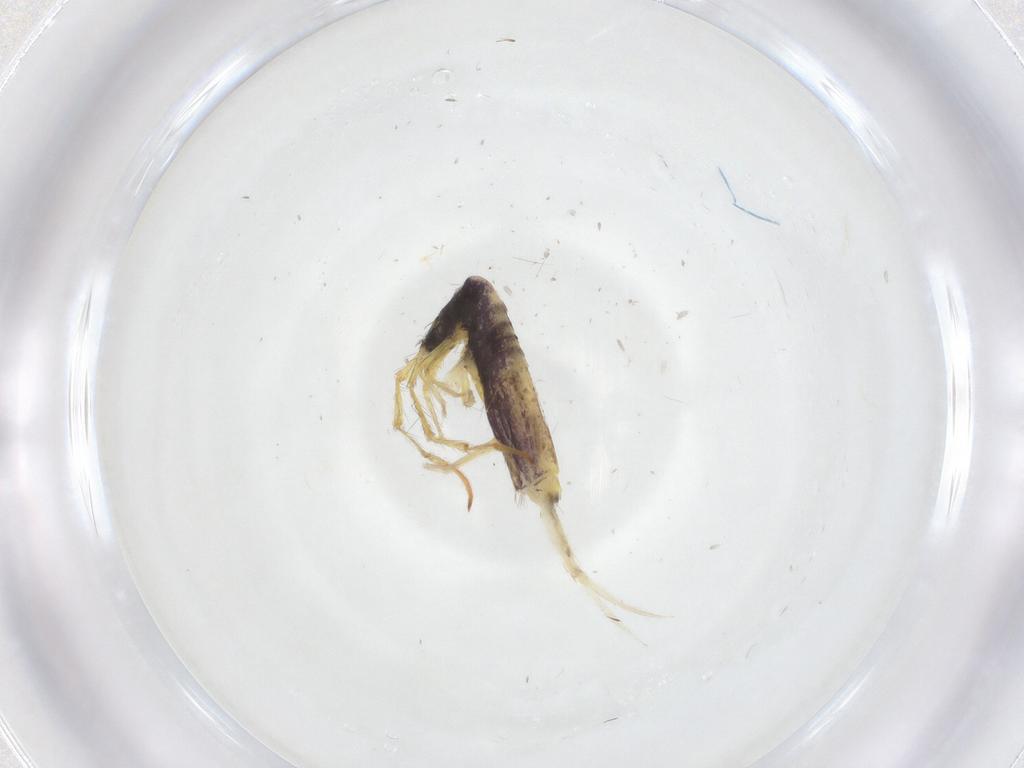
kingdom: Animalia
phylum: Arthropoda
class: Collembola
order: Entomobryomorpha
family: Entomobryidae
